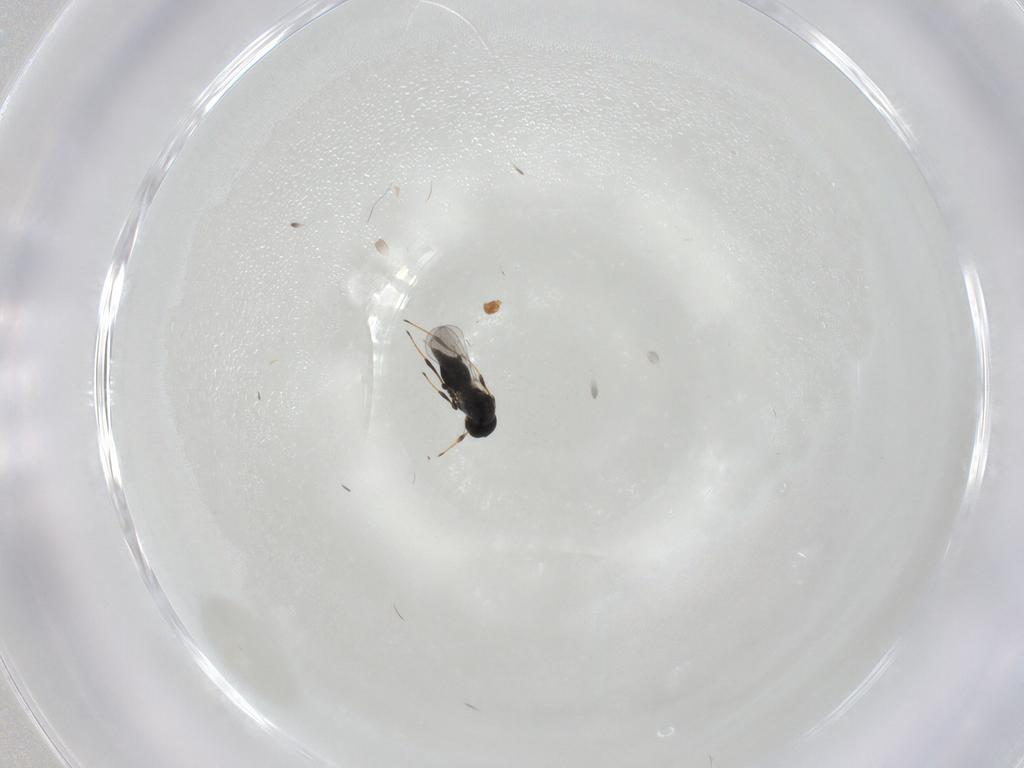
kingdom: Animalia
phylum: Arthropoda
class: Insecta
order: Hymenoptera
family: Platygastridae
